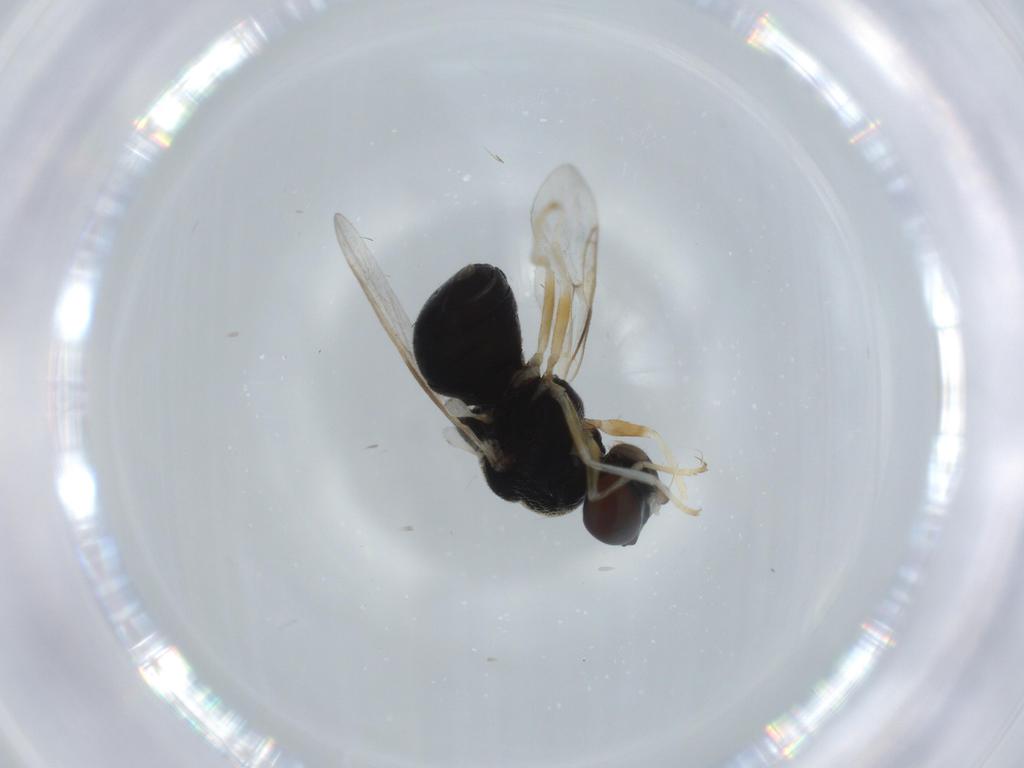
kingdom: Animalia
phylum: Arthropoda
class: Insecta
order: Diptera
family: Stratiomyidae
